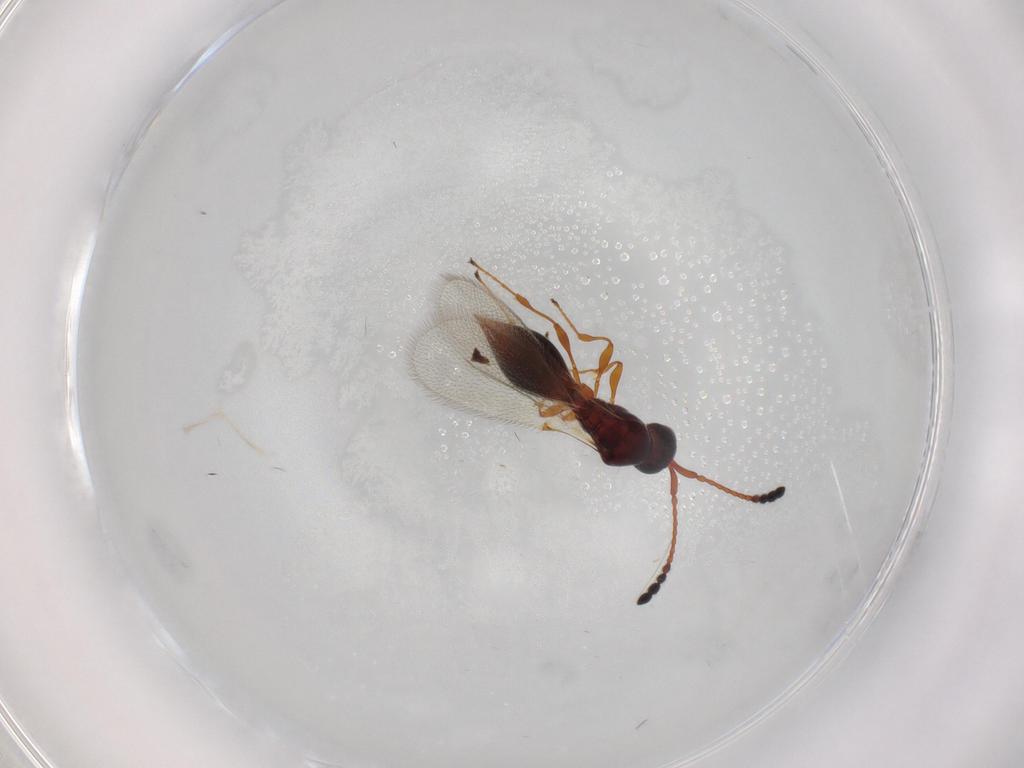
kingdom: Animalia
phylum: Arthropoda
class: Insecta
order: Hymenoptera
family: Diapriidae
